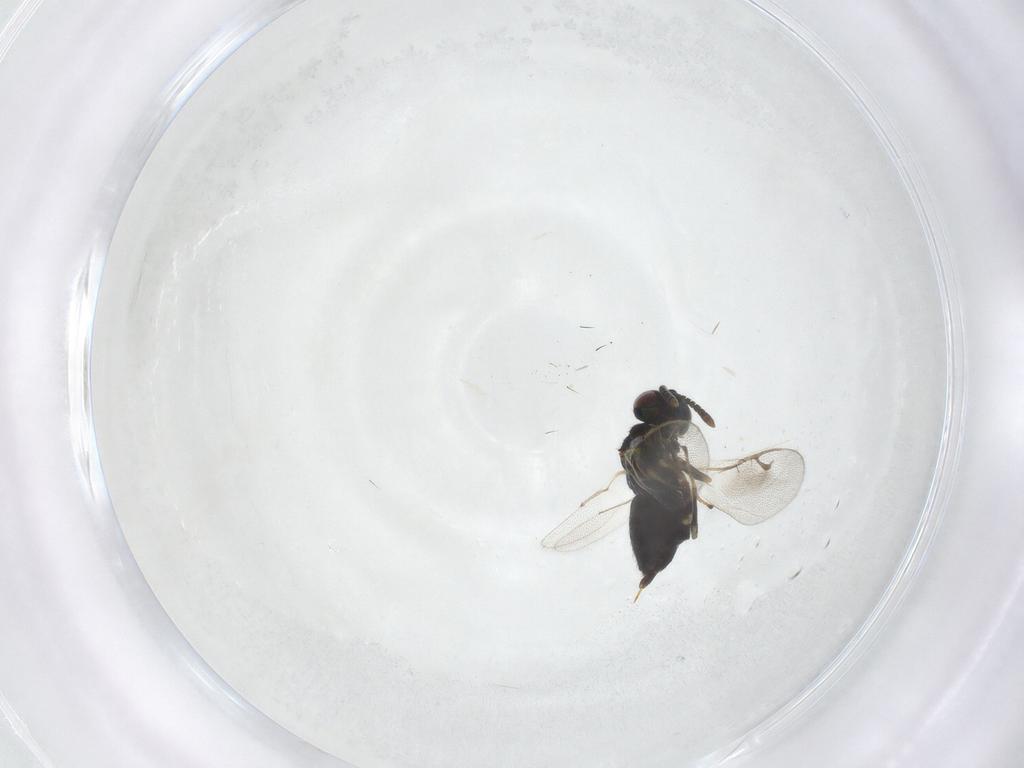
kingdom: Animalia
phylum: Arthropoda
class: Insecta
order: Hymenoptera
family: Pteromalidae
